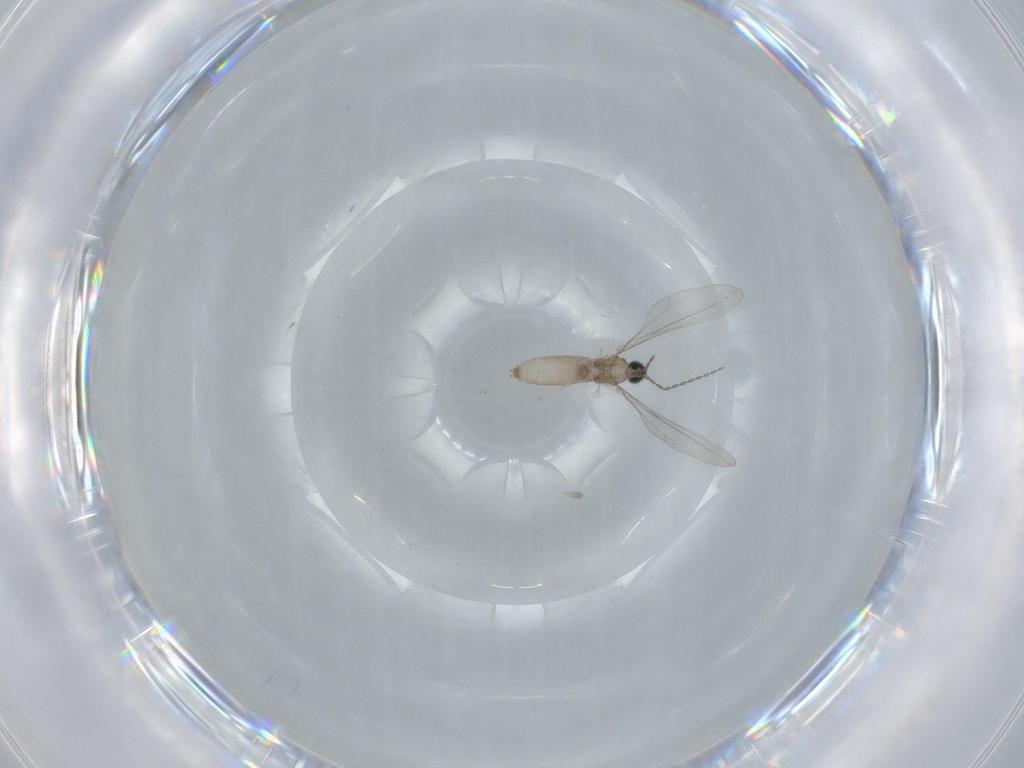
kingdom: Animalia
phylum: Arthropoda
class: Insecta
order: Diptera
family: Cecidomyiidae
